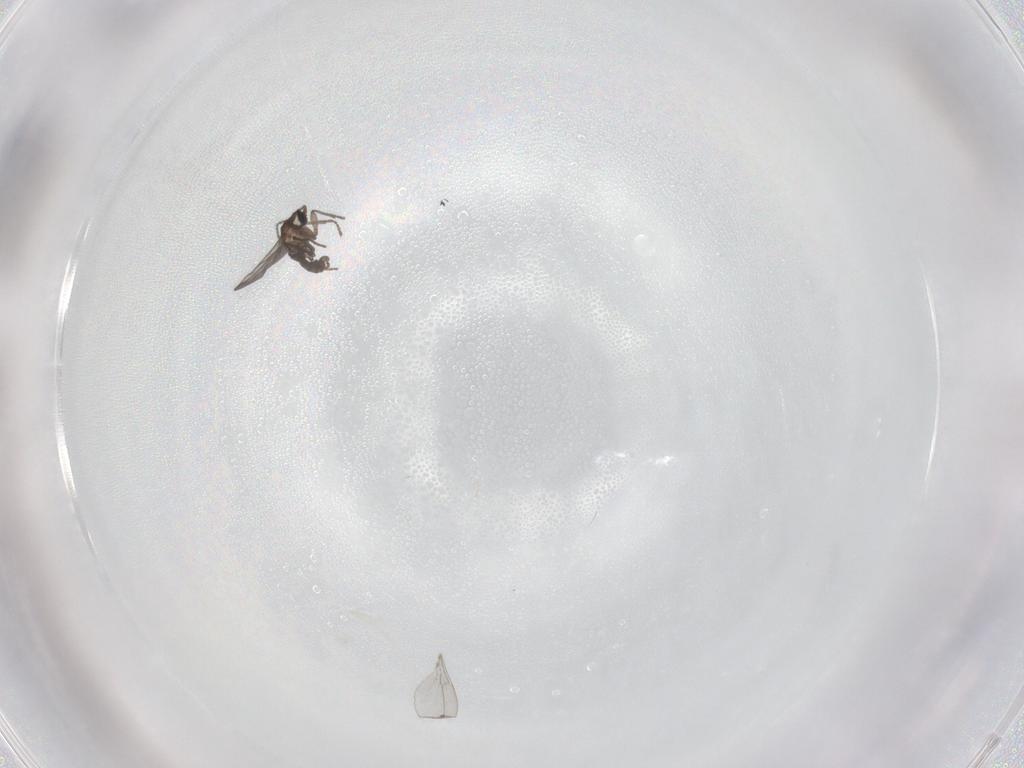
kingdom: Animalia
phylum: Arthropoda
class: Insecta
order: Diptera
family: Cecidomyiidae
